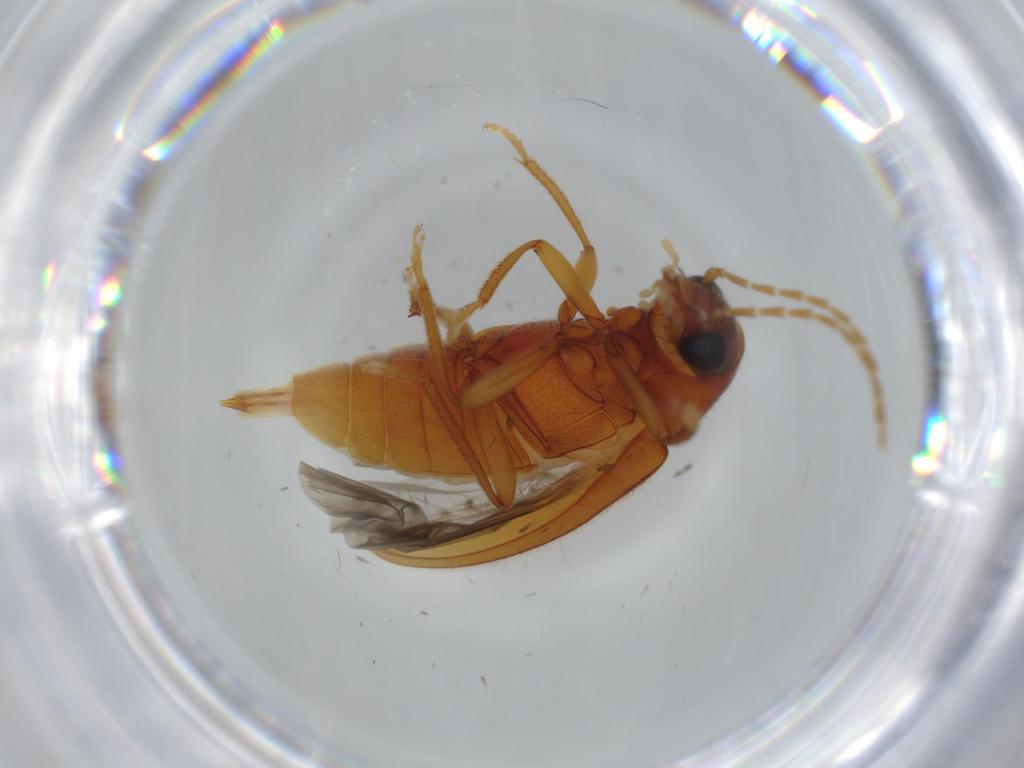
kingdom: Animalia
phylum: Arthropoda
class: Insecta
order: Coleoptera
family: Ptilodactylidae
